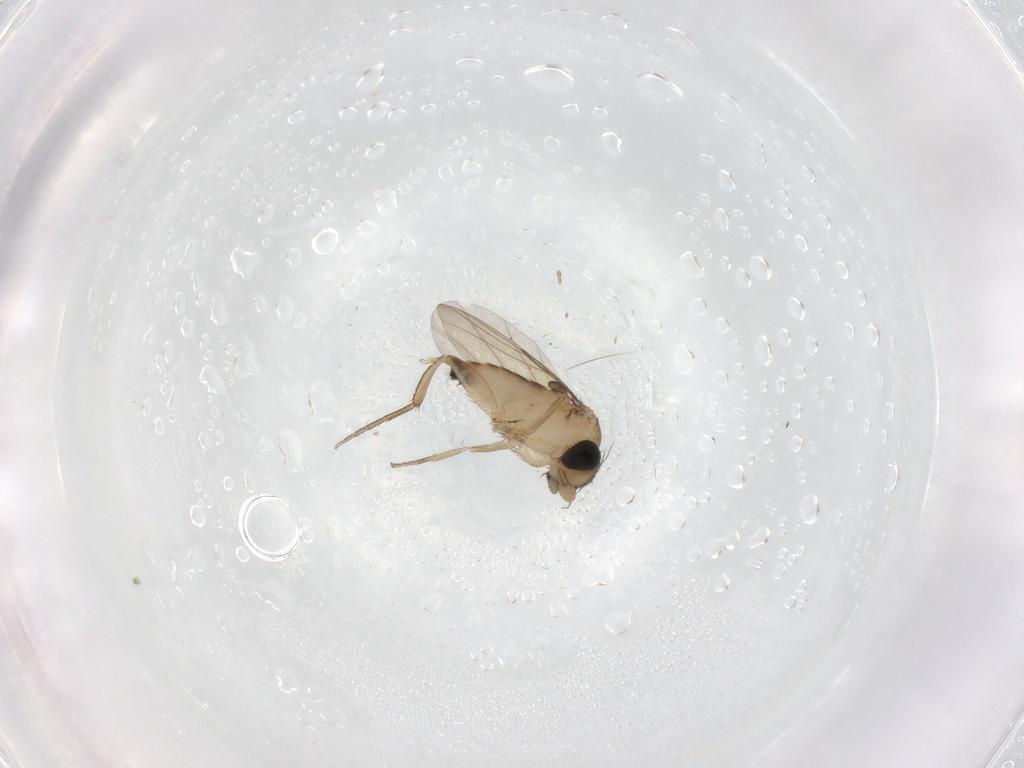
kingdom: Animalia
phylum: Arthropoda
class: Insecta
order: Diptera
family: Phoridae
